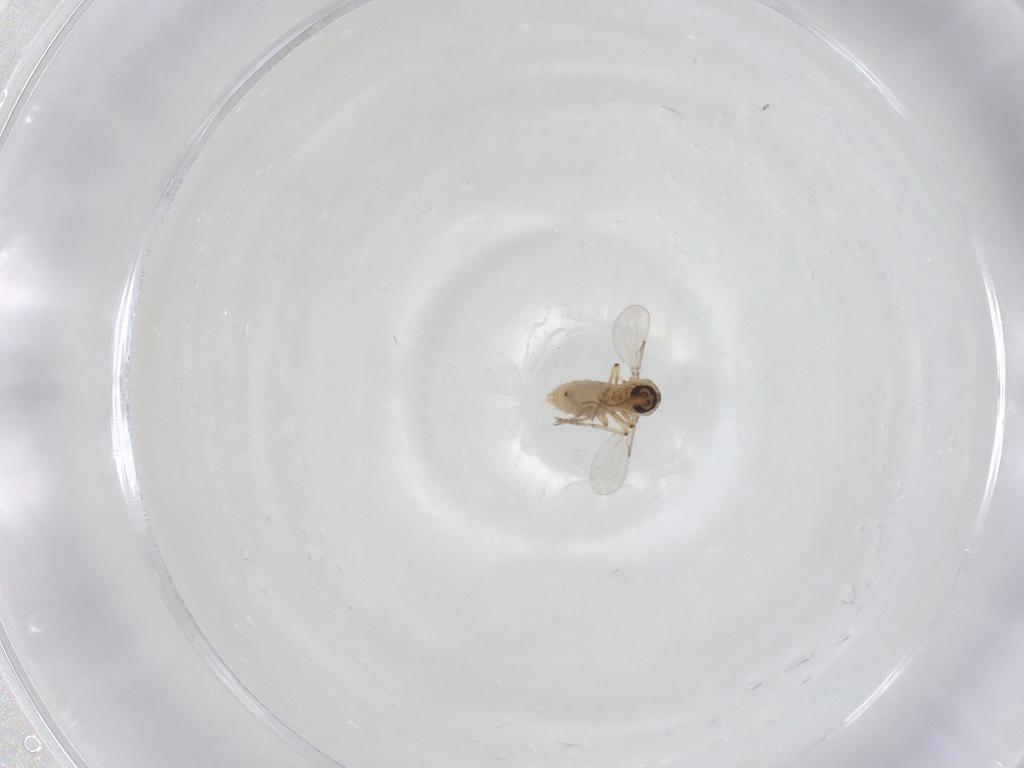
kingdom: Animalia
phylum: Arthropoda
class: Insecta
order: Diptera
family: Ceratopogonidae
